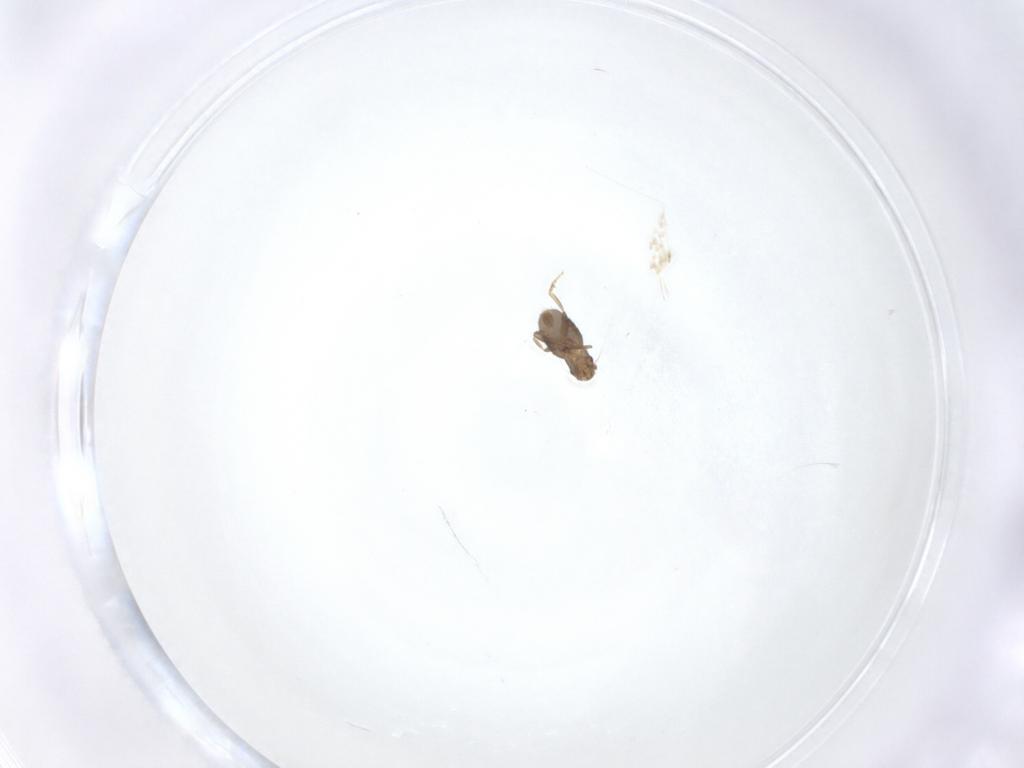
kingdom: Animalia
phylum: Arthropoda
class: Insecta
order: Diptera
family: Phoridae
